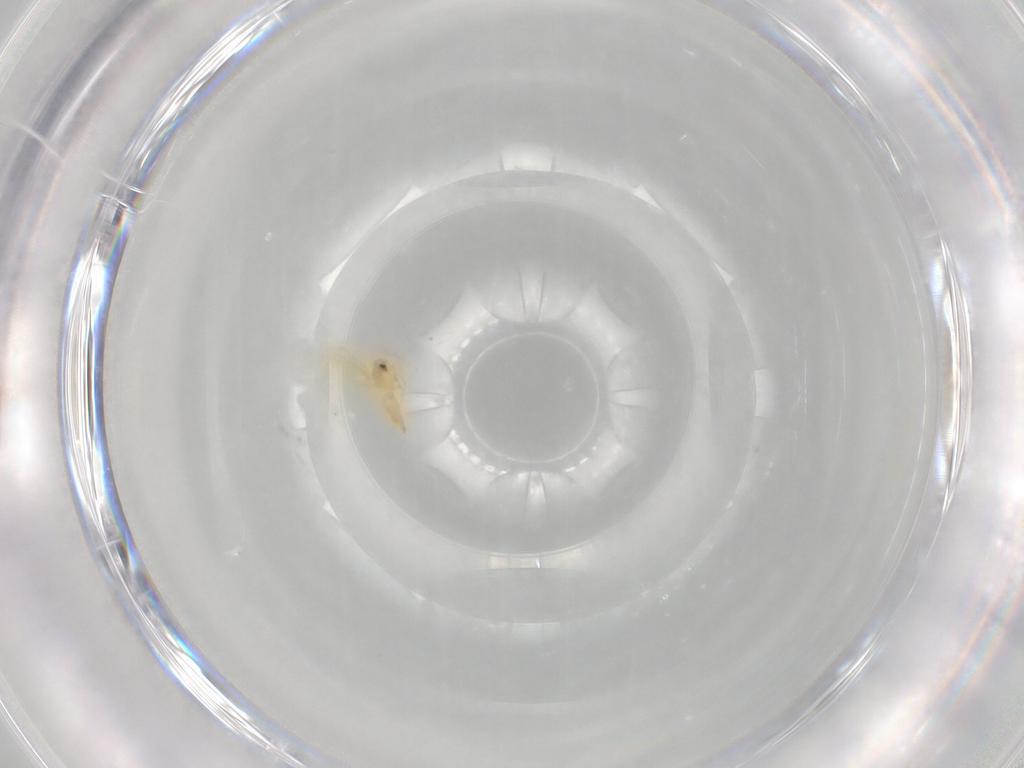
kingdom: Animalia
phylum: Arthropoda
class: Insecta
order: Hemiptera
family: Aleyrodidae
